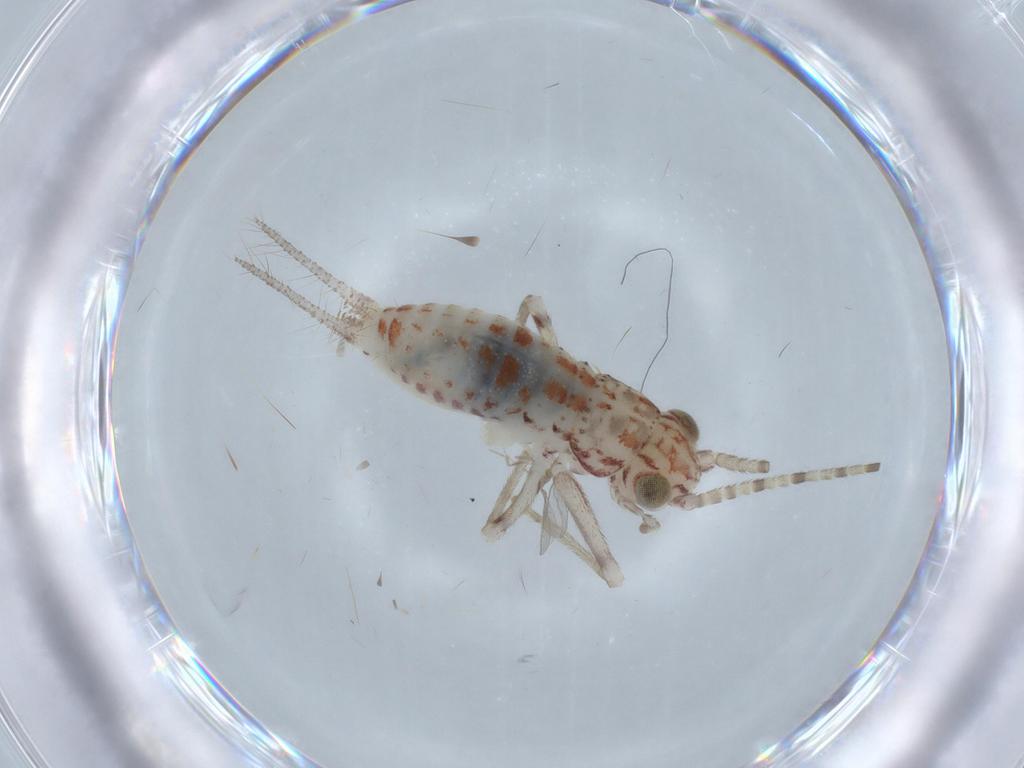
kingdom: Animalia
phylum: Arthropoda
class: Insecta
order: Orthoptera
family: Trigonidiidae
